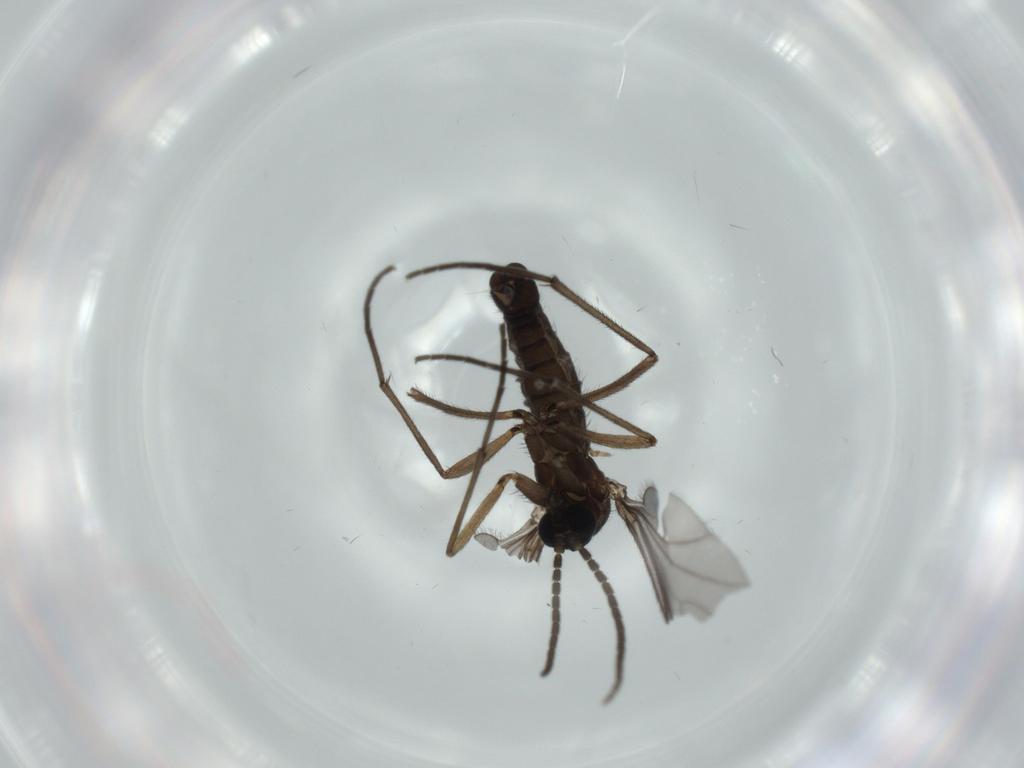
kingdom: Animalia
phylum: Arthropoda
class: Insecta
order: Diptera
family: Sciaridae
